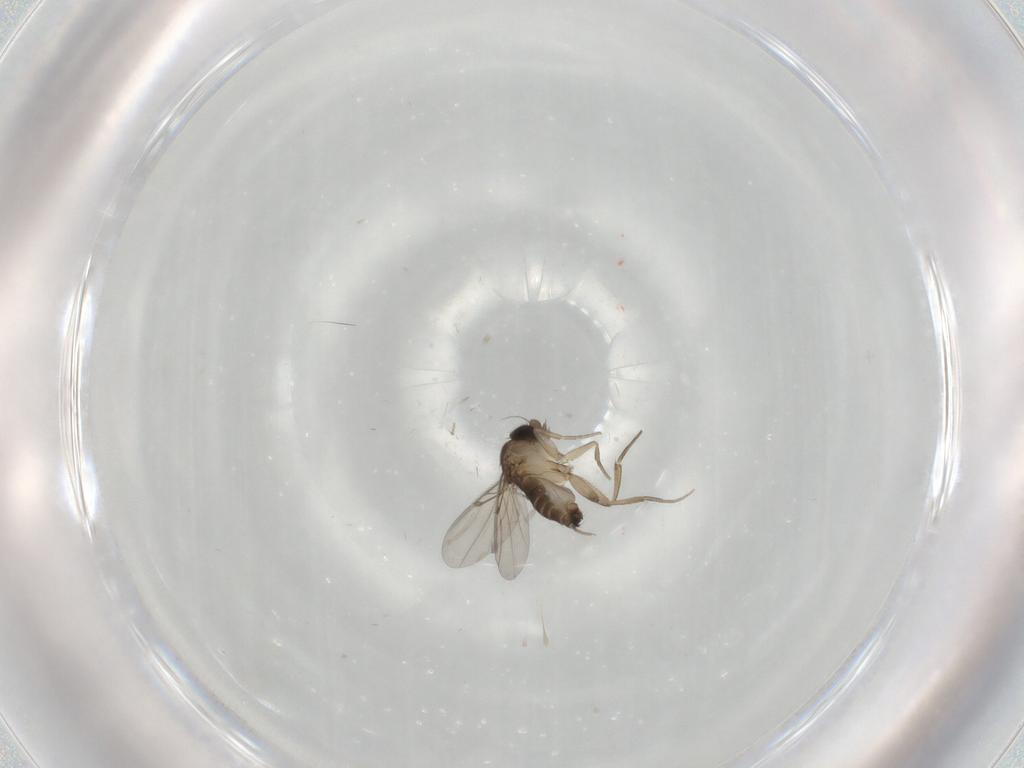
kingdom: Animalia
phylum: Arthropoda
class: Insecta
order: Diptera
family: Phoridae
